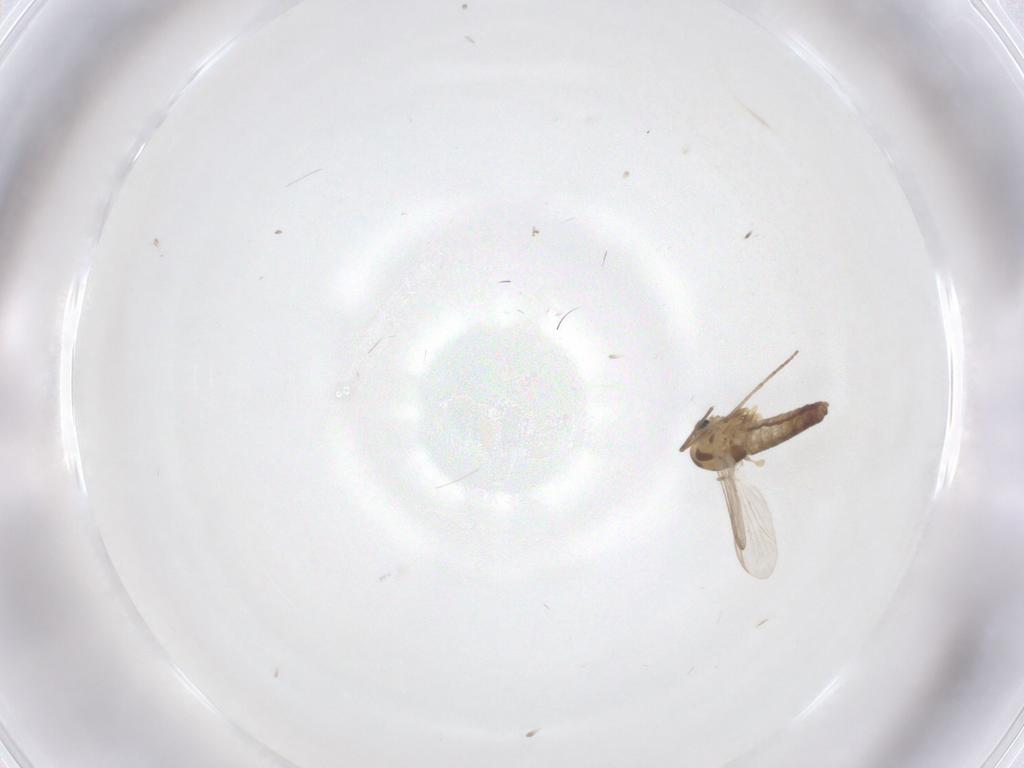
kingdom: Animalia
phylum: Arthropoda
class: Insecta
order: Diptera
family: Chironomidae
